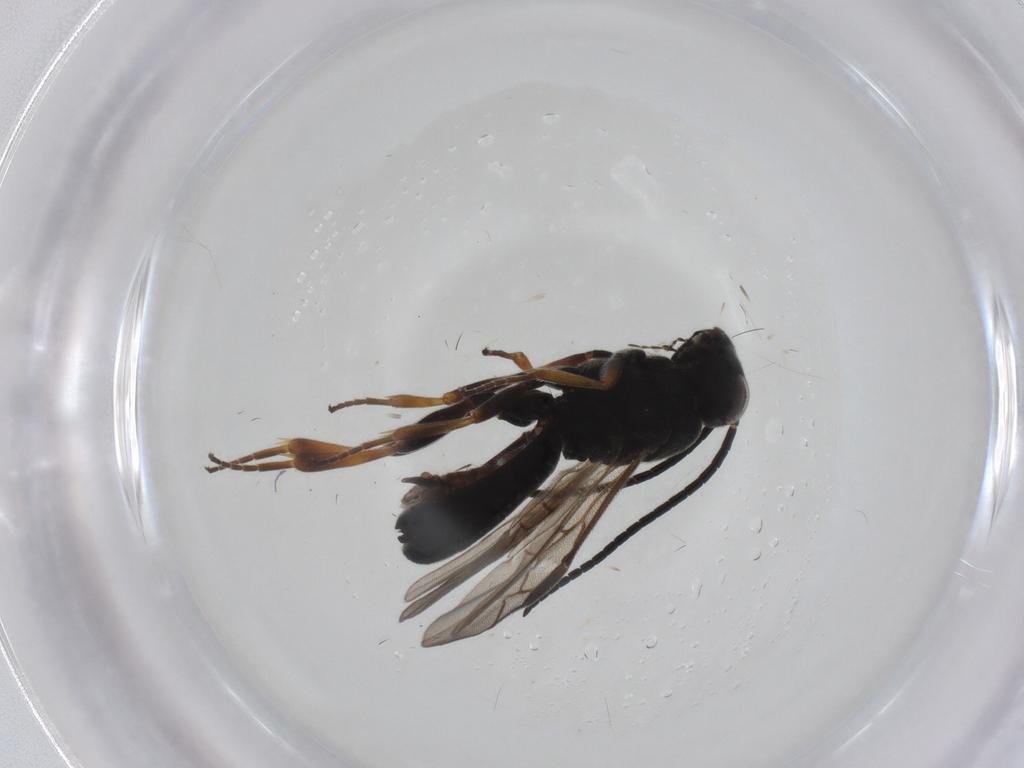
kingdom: Animalia
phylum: Arthropoda
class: Insecta
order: Hymenoptera
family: Braconidae
